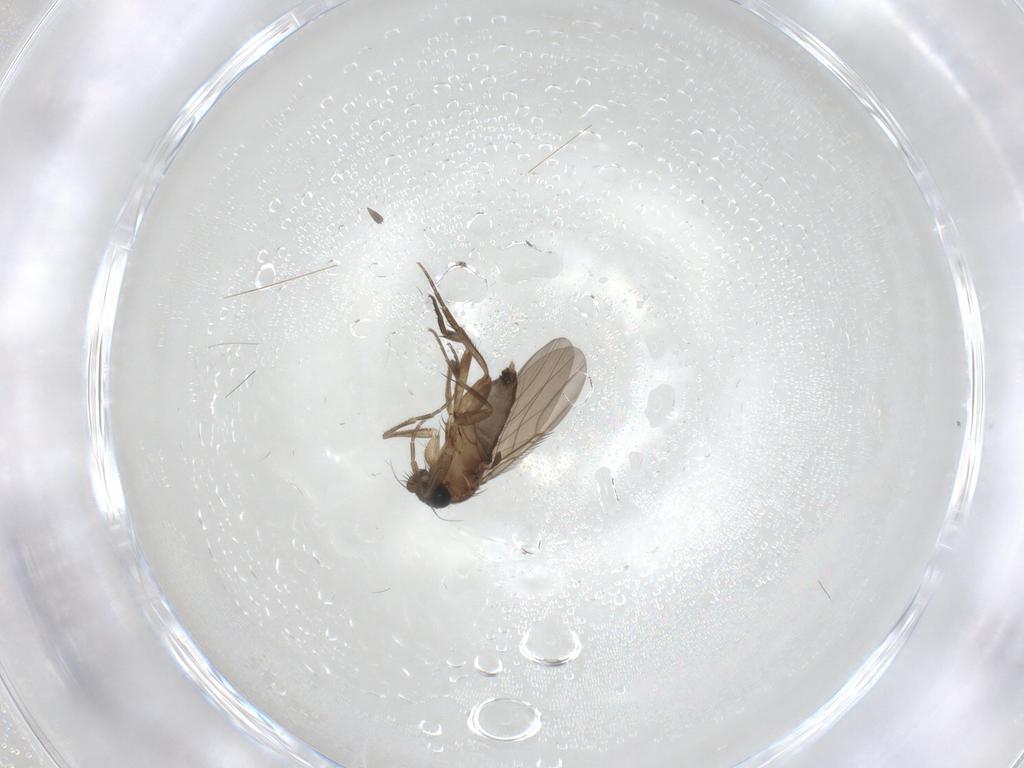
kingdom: Animalia
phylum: Arthropoda
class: Insecta
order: Diptera
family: Phoridae
